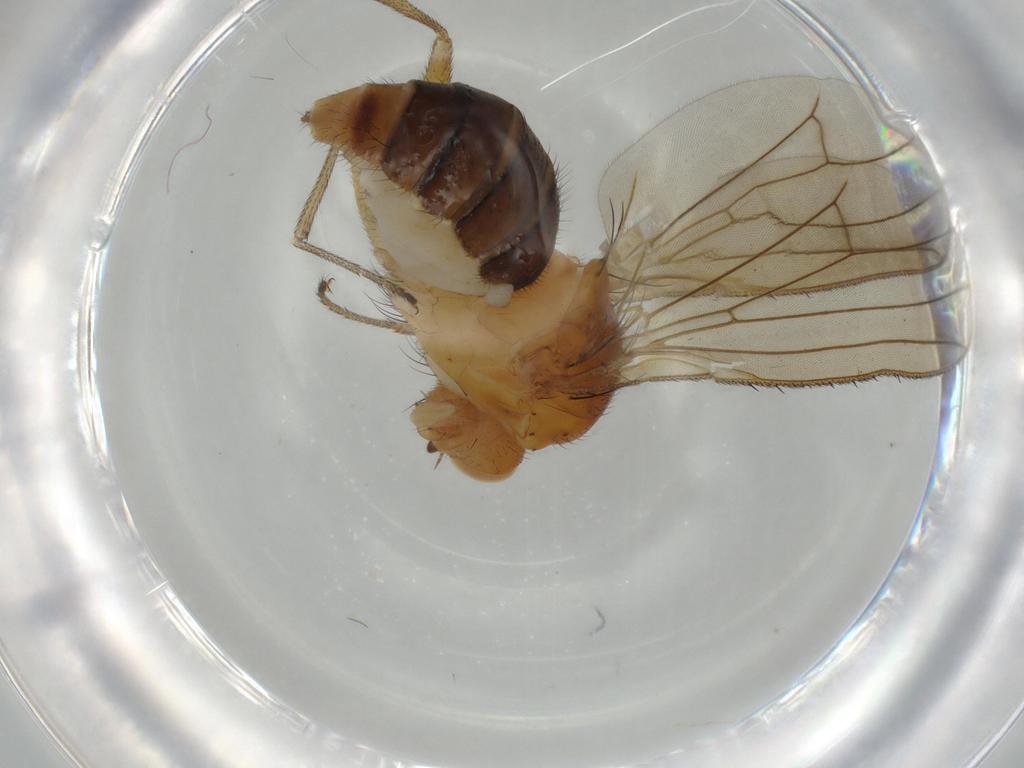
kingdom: Animalia
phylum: Arthropoda
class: Insecta
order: Diptera
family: Heleomyzidae
